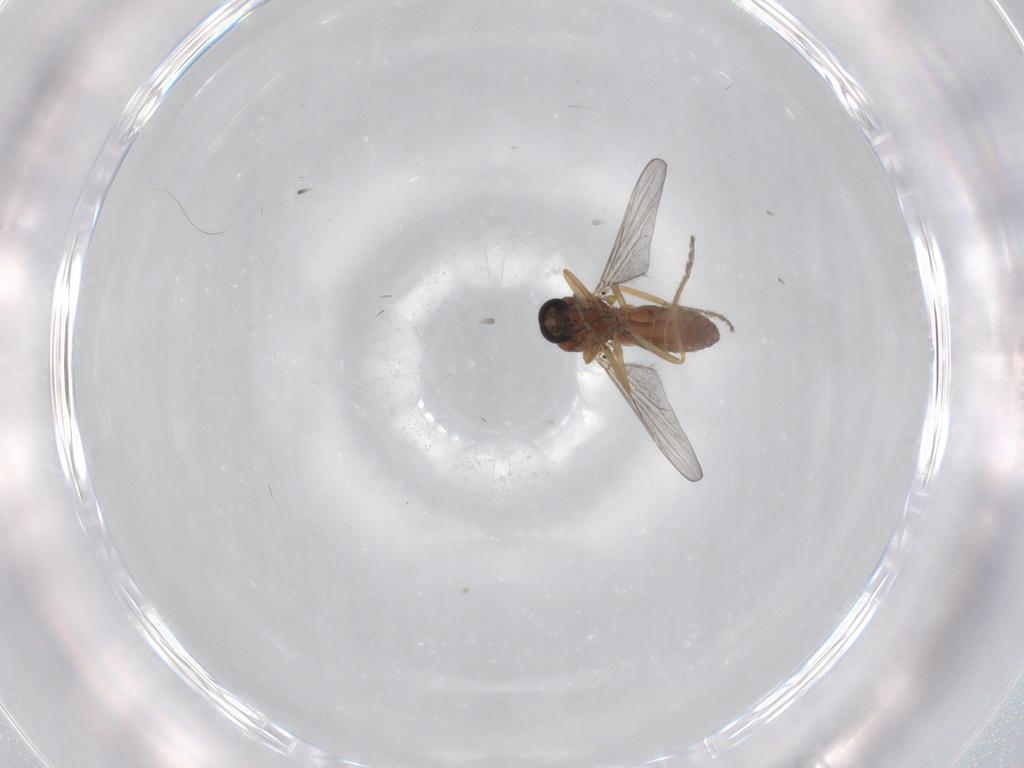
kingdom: Animalia
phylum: Arthropoda
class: Insecta
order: Diptera
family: Ceratopogonidae
